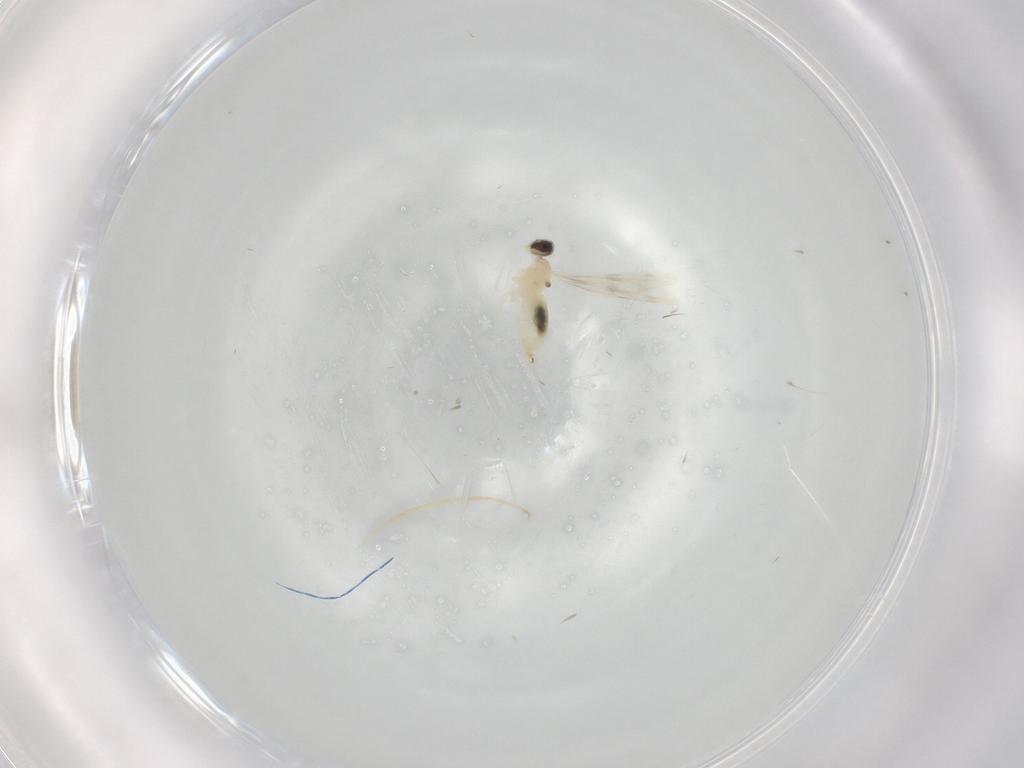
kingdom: Animalia
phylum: Arthropoda
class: Insecta
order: Diptera
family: Cecidomyiidae
